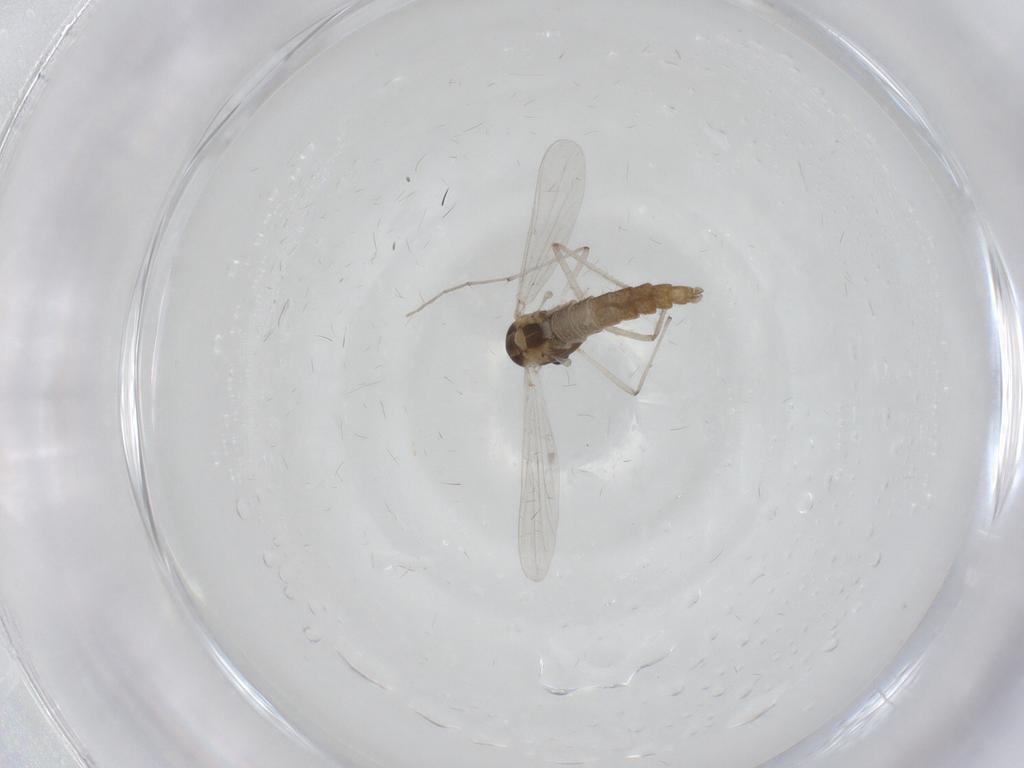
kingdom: Animalia
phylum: Arthropoda
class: Insecta
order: Diptera
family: Chironomidae
